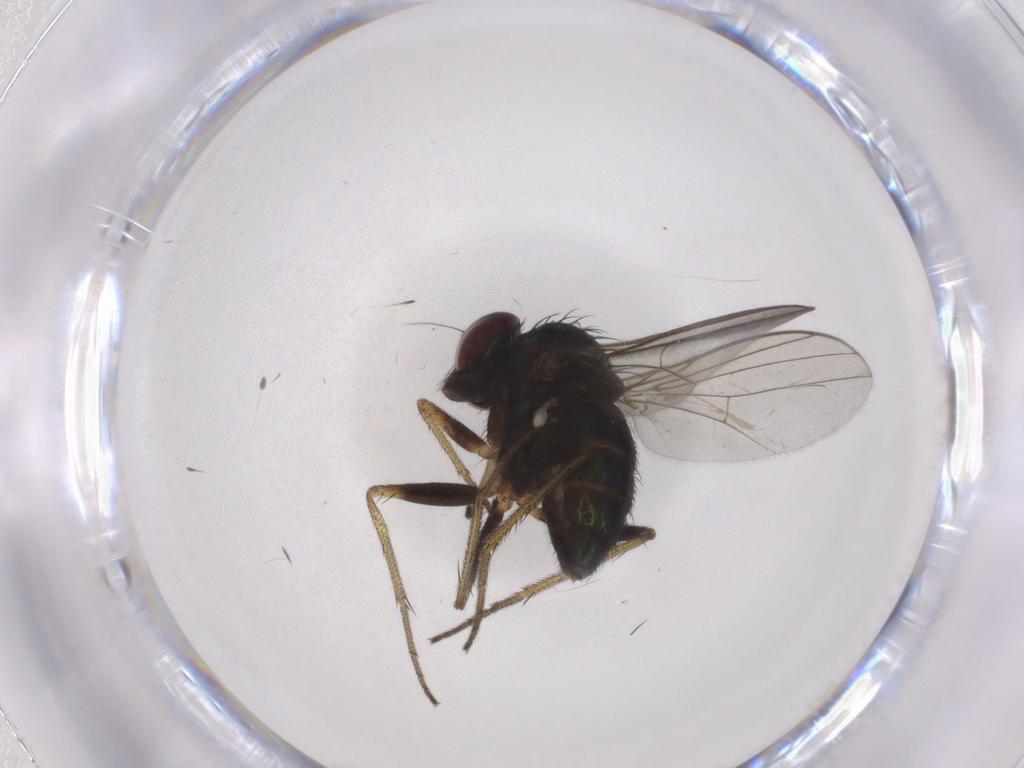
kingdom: Animalia
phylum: Arthropoda
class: Insecta
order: Diptera
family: Dolichopodidae
